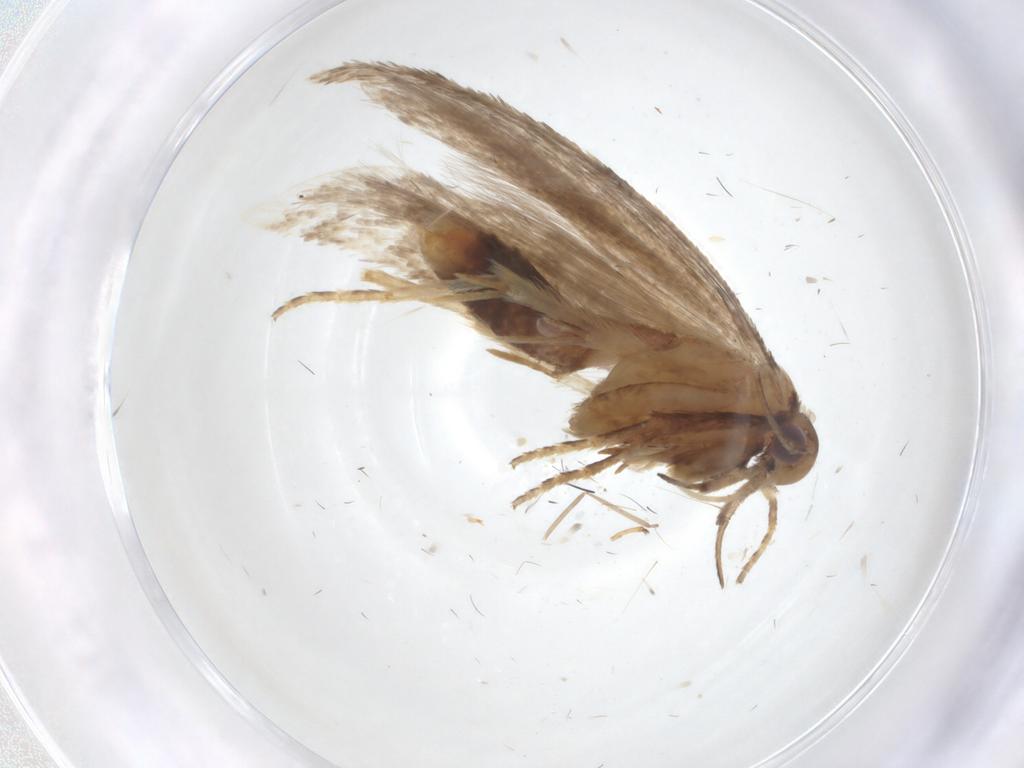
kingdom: Animalia
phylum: Arthropoda
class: Insecta
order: Lepidoptera
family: Gelechiidae
